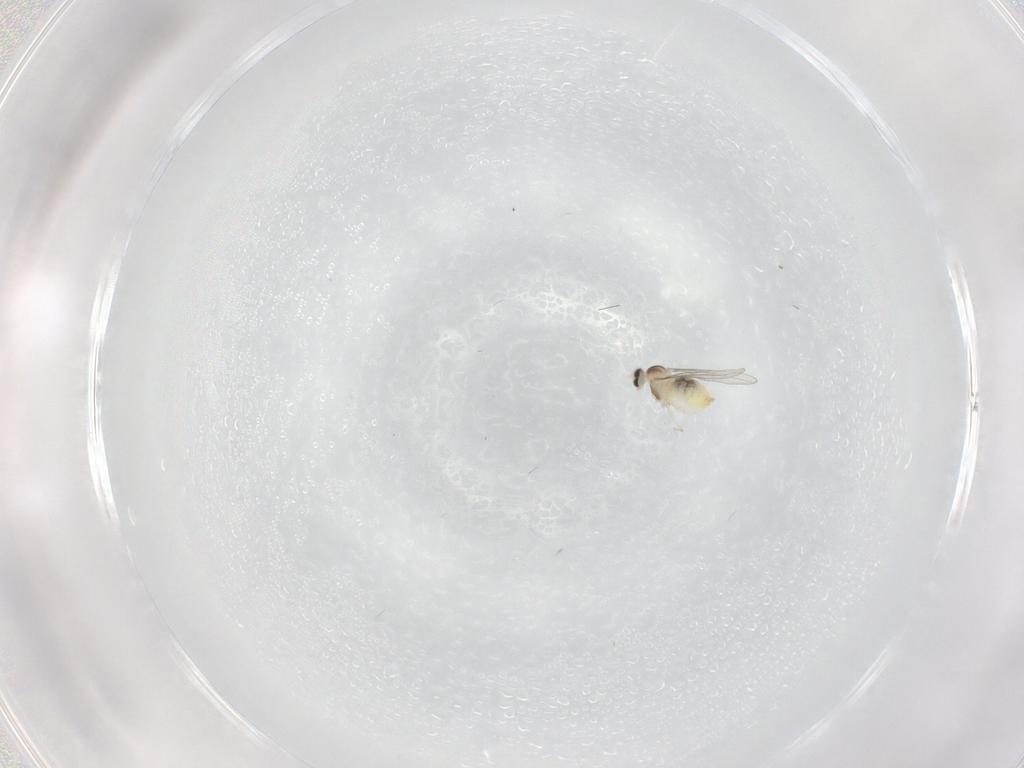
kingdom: Animalia
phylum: Arthropoda
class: Insecta
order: Diptera
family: Cecidomyiidae
